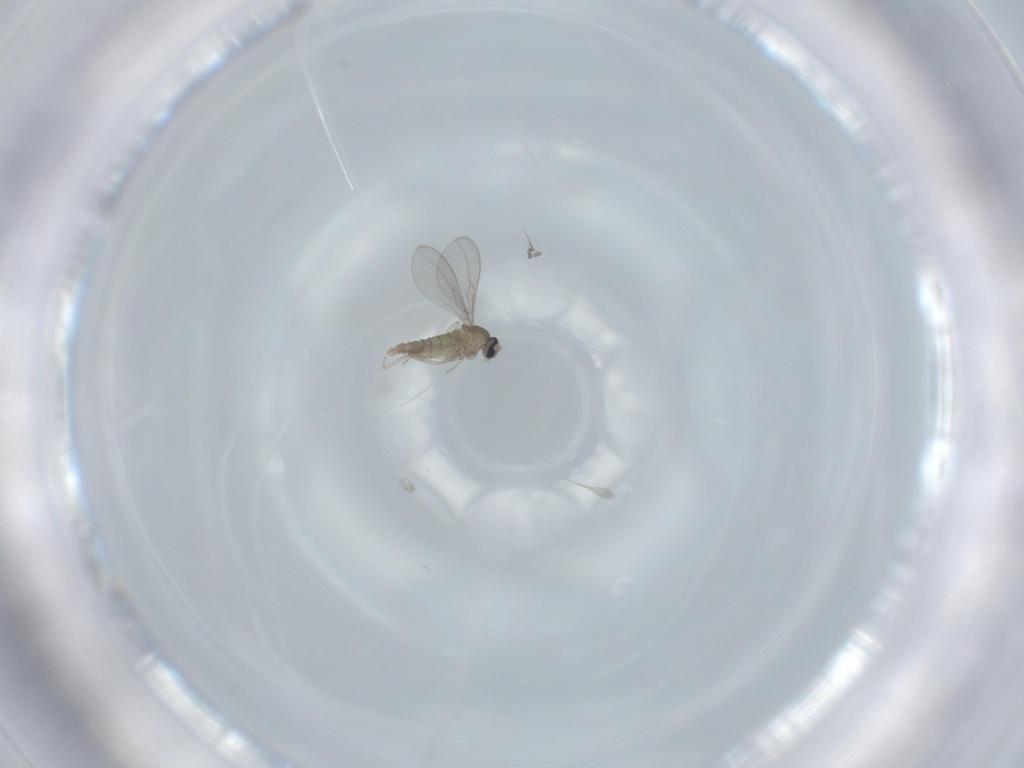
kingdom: Animalia
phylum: Arthropoda
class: Insecta
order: Diptera
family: Cecidomyiidae
